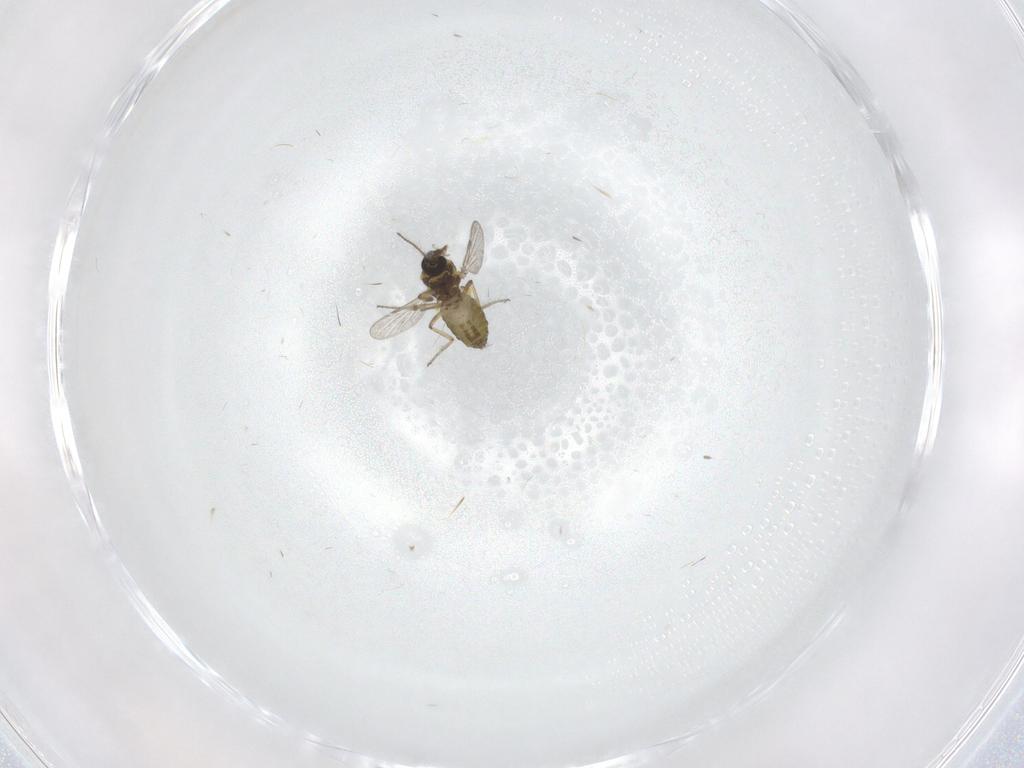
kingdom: Animalia
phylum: Arthropoda
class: Insecta
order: Diptera
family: Ceratopogonidae
